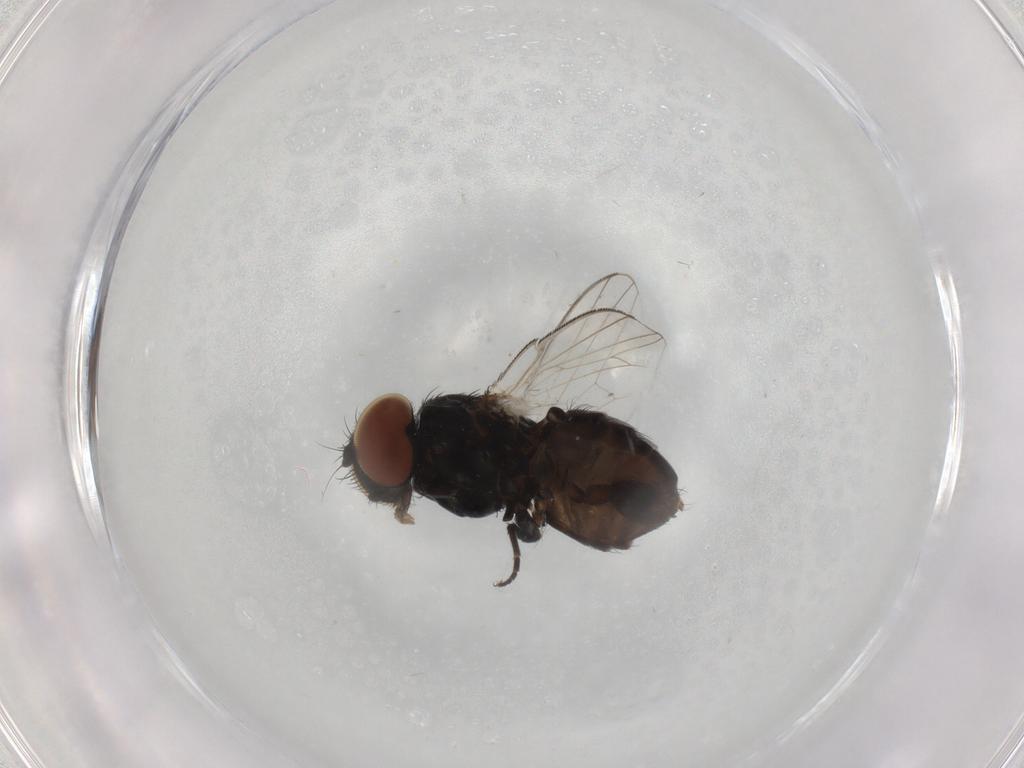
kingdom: Animalia
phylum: Arthropoda
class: Insecta
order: Diptera
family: Milichiidae
